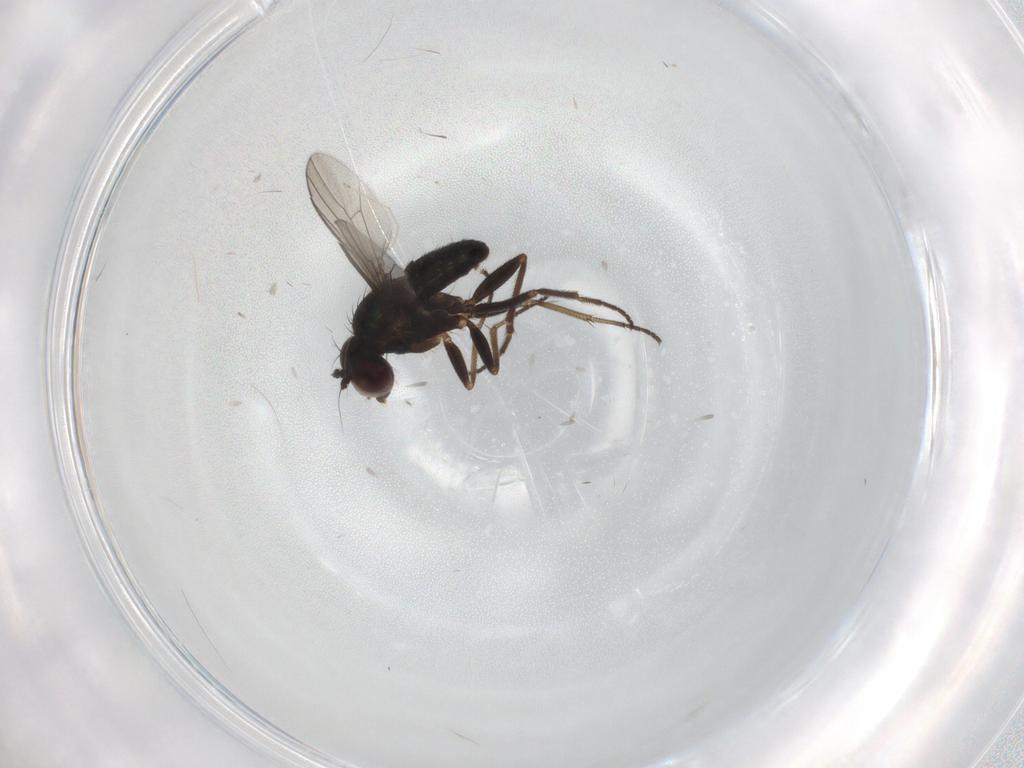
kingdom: Animalia
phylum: Arthropoda
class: Insecta
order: Diptera
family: Dolichopodidae
